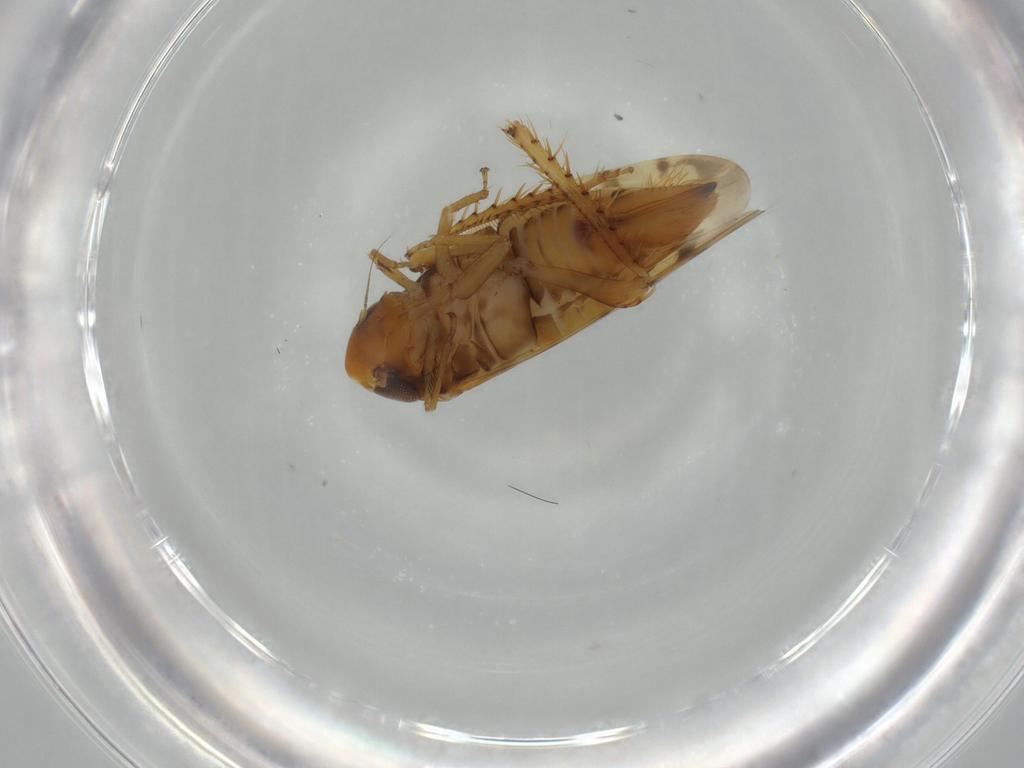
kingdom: Animalia
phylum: Arthropoda
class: Insecta
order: Hemiptera
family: Cicadellidae
